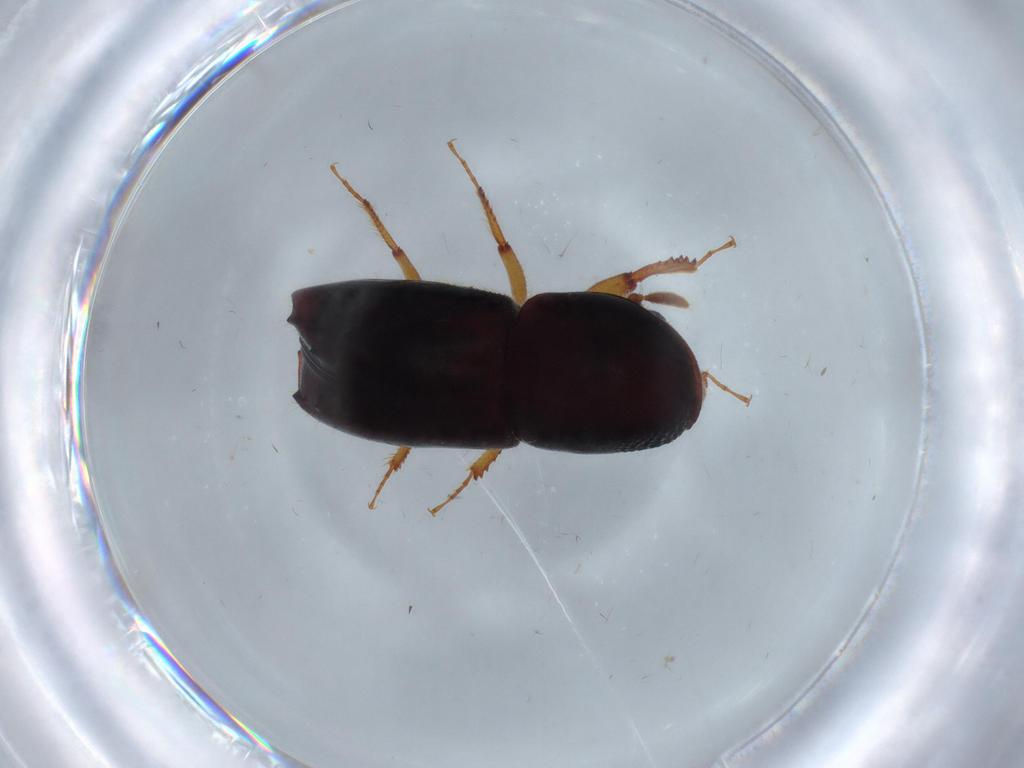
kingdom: Animalia
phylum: Arthropoda
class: Insecta
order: Coleoptera
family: Curculionidae
